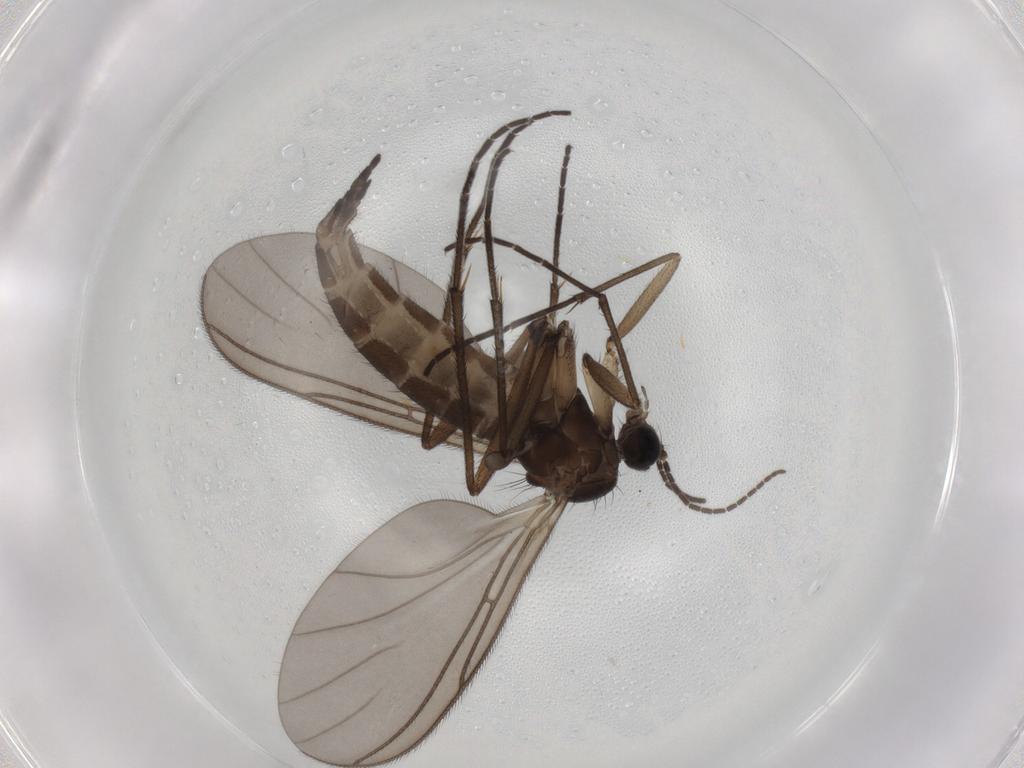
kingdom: Animalia
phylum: Arthropoda
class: Insecta
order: Diptera
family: Sciaridae
